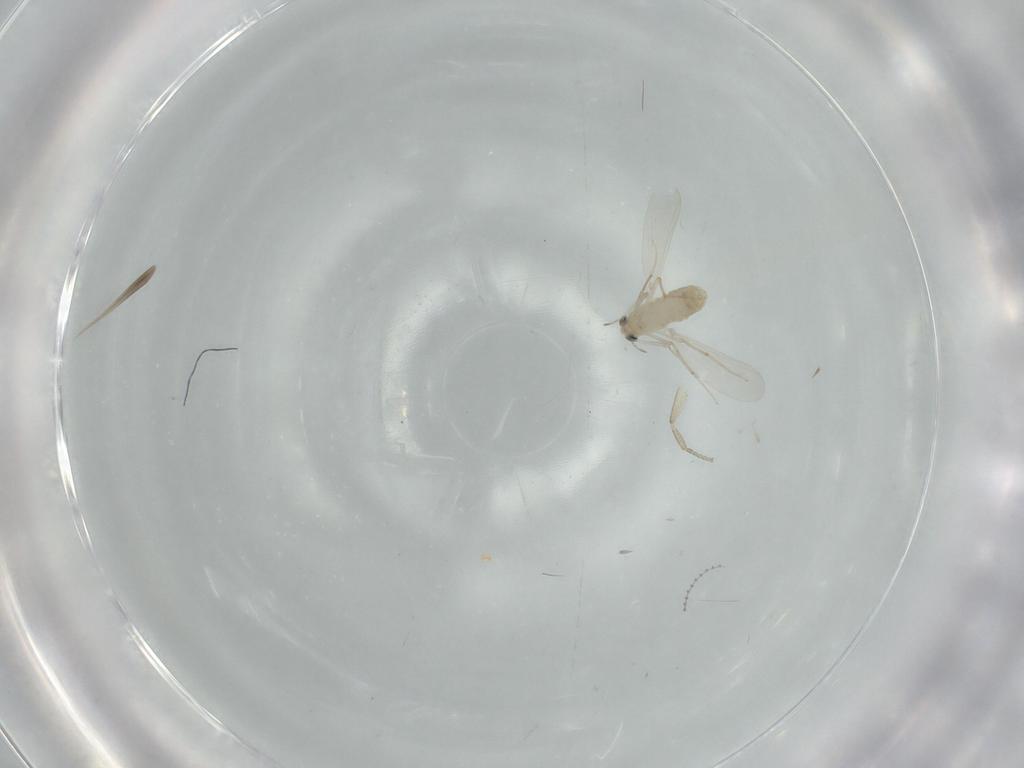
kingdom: Animalia
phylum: Arthropoda
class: Insecta
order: Diptera
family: Chironomidae
